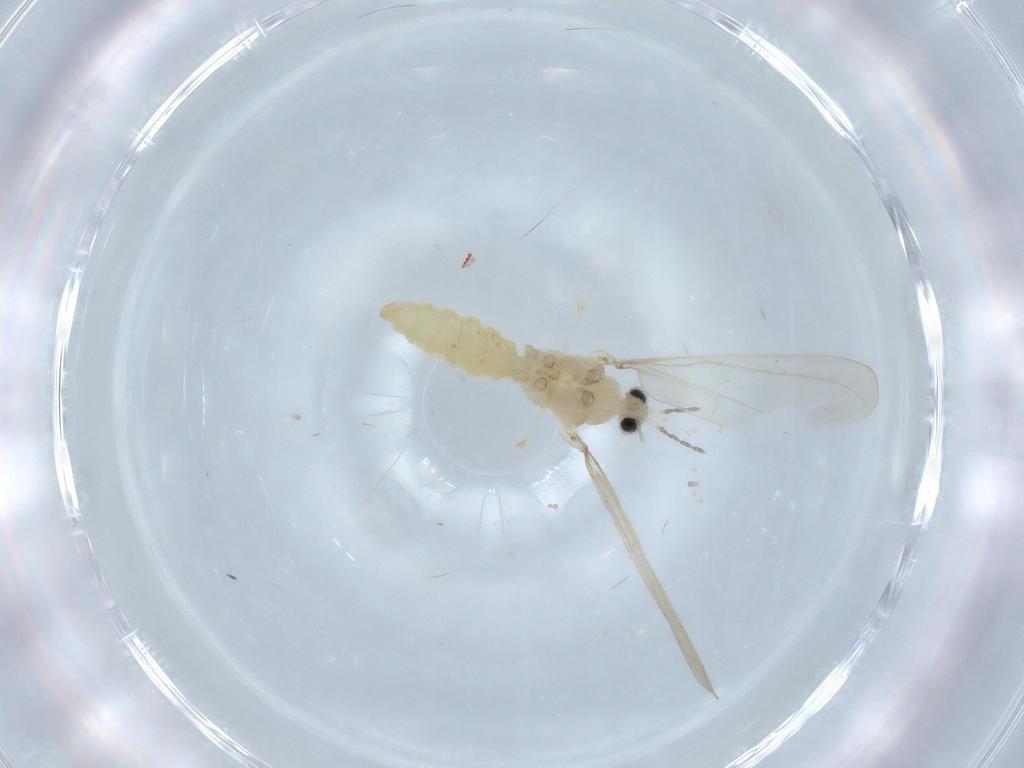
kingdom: Animalia
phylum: Arthropoda
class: Insecta
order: Diptera
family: Cecidomyiidae
